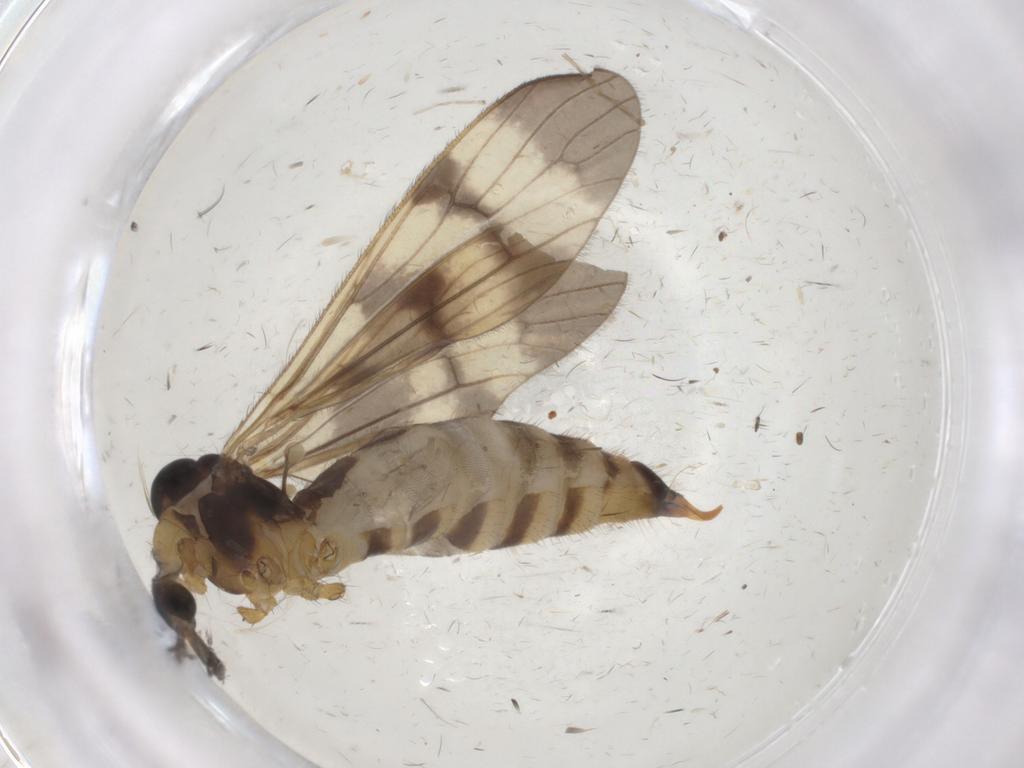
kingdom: Animalia
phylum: Arthropoda
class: Insecta
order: Diptera
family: Limoniidae
